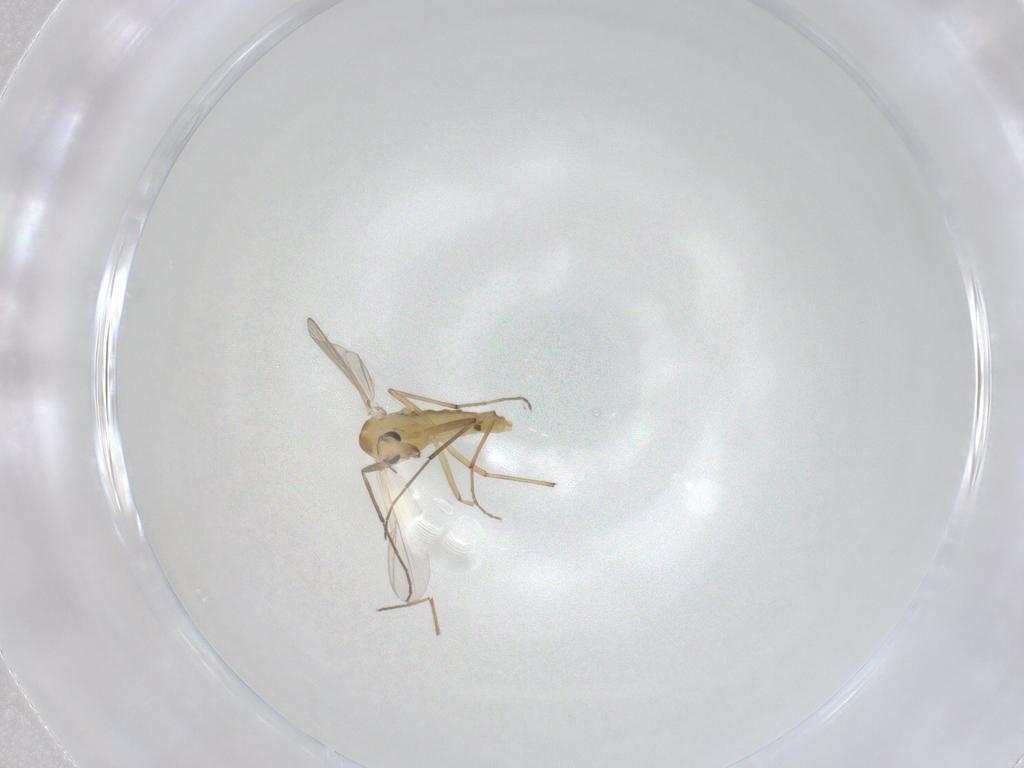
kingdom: Animalia
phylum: Arthropoda
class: Insecta
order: Diptera
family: Chironomidae
